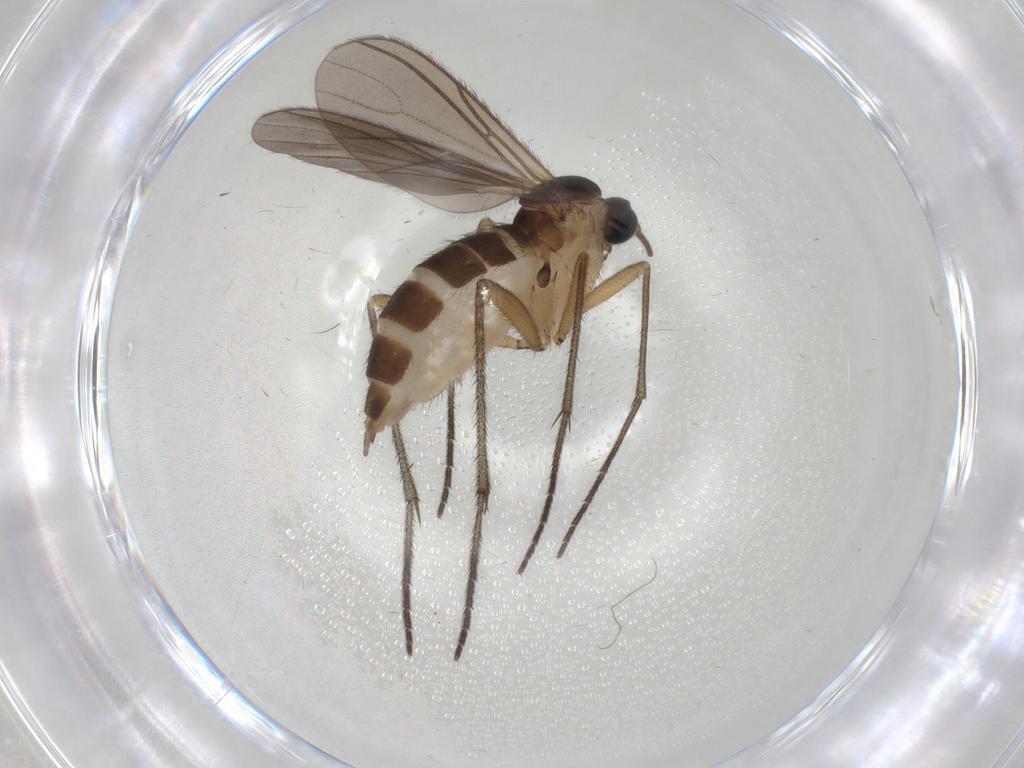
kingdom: Animalia
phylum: Arthropoda
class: Insecta
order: Diptera
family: Sciaridae
